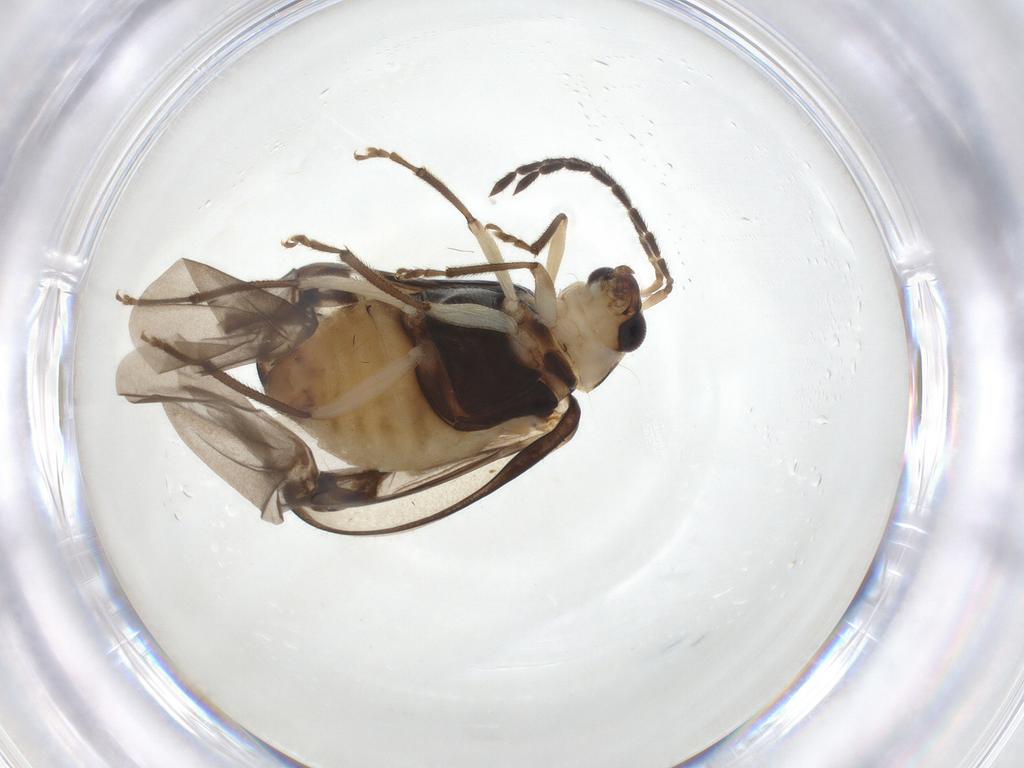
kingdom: Animalia
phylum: Arthropoda
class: Insecta
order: Coleoptera
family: Chrysomelidae
